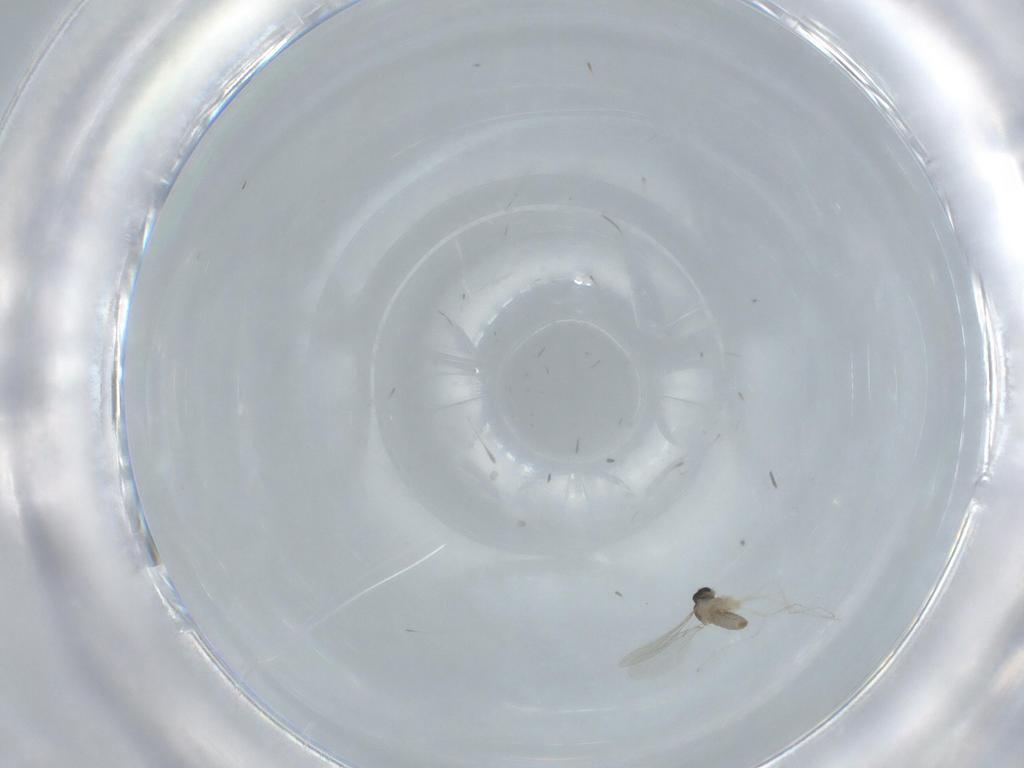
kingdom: Animalia
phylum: Arthropoda
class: Insecta
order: Diptera
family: Cecidomyiidae
